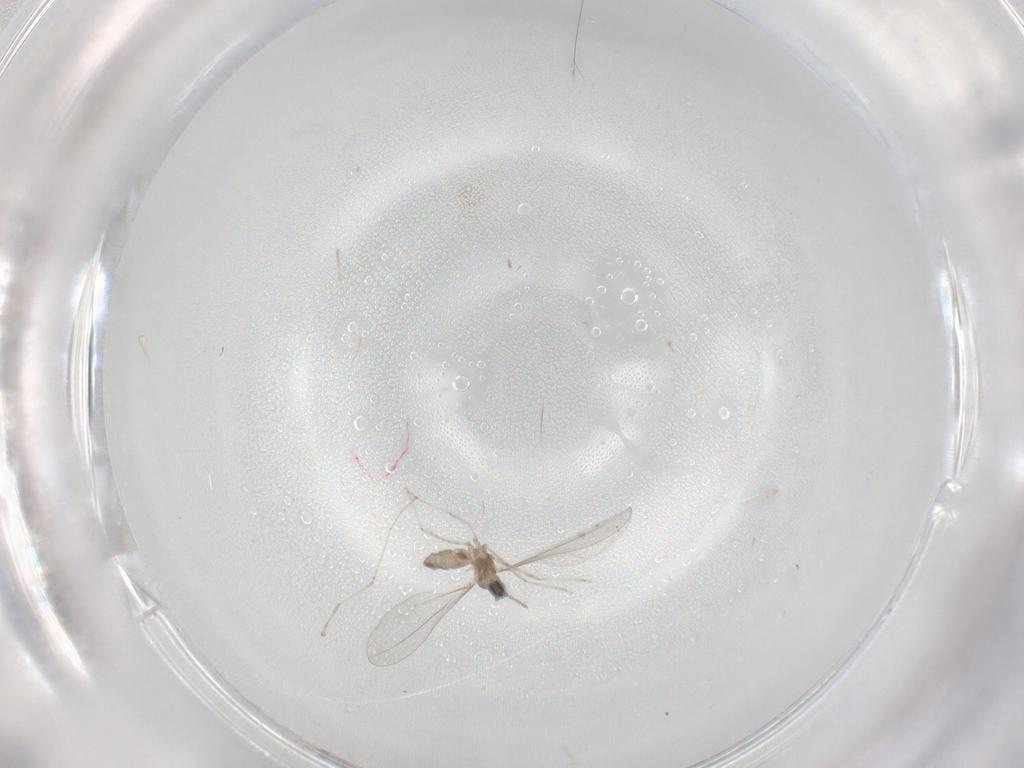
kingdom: Animalia
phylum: Arthropoda
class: Insecta
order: Diptera
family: Cecidomyiidae
